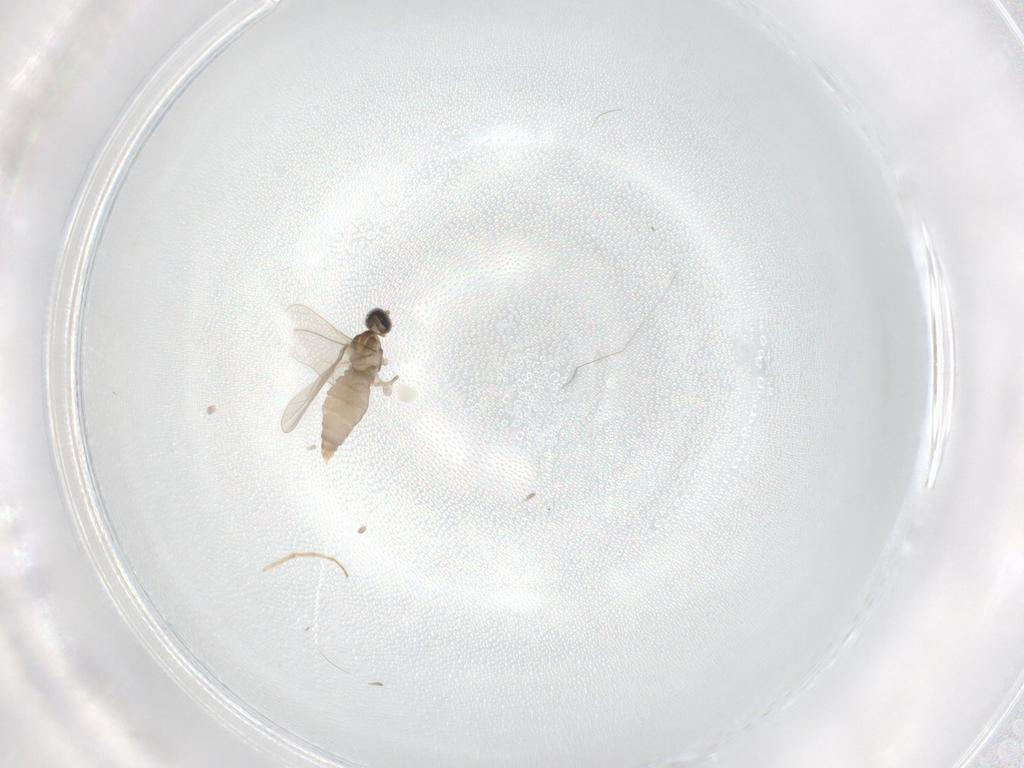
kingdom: Animalia
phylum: Arthropoda
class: Insecta
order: Diptera
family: Chironomidae
